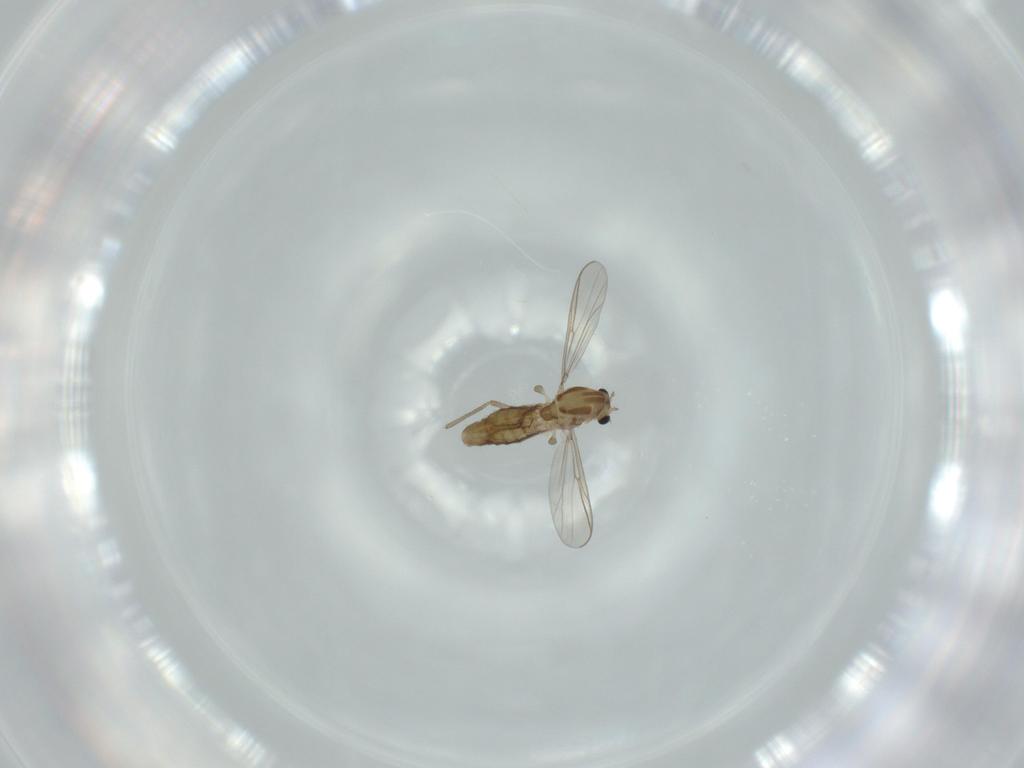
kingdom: Animalia
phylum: Arthropoda
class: Insecta
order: Diptera
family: Chironomidae
